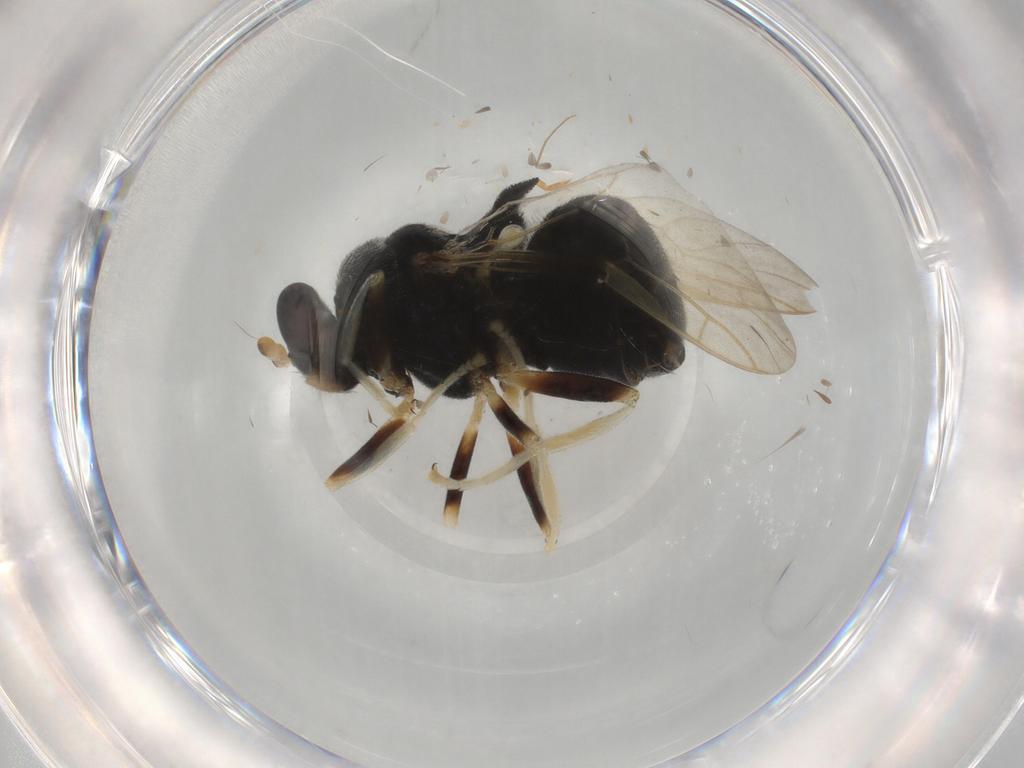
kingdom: Animalia
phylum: Arthropoda
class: Insecta
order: Diptera
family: Stratiomyidae
